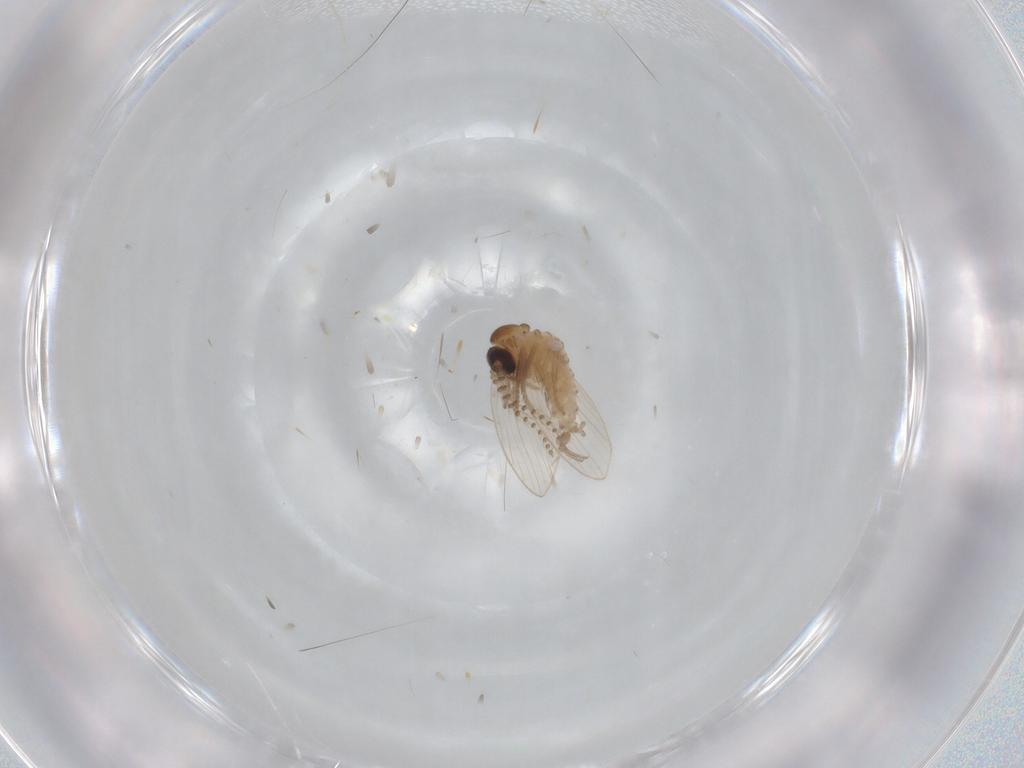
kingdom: Animalia
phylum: Arthropoda
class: Insecta
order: Diptera
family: Psychodidae
